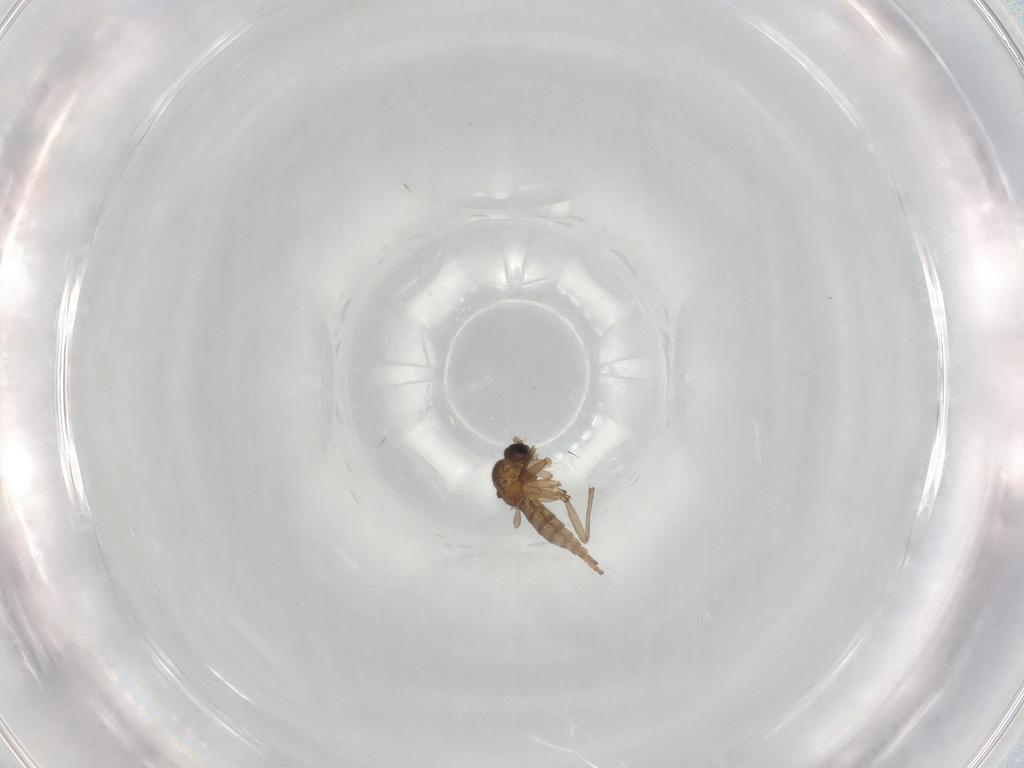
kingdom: Animalia
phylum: Arthropoda
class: Insecta
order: Diptera
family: Sciaridae
